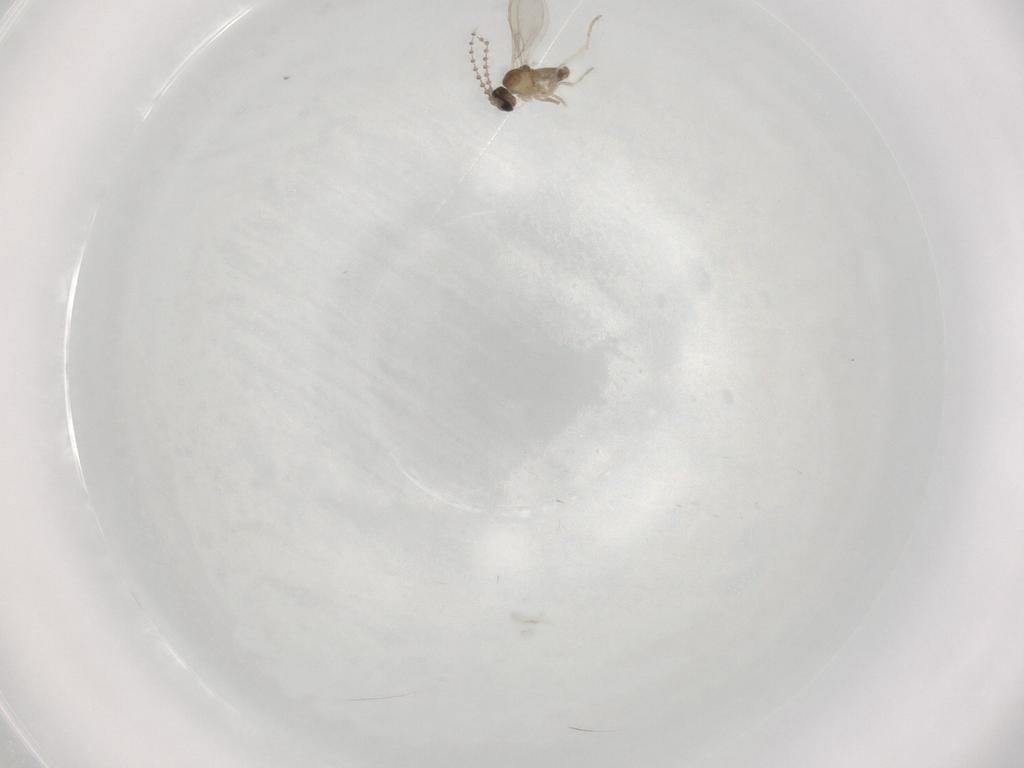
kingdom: Animalia
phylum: Arthropoda
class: Insecta
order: Diptera
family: Cecidomyiidae
